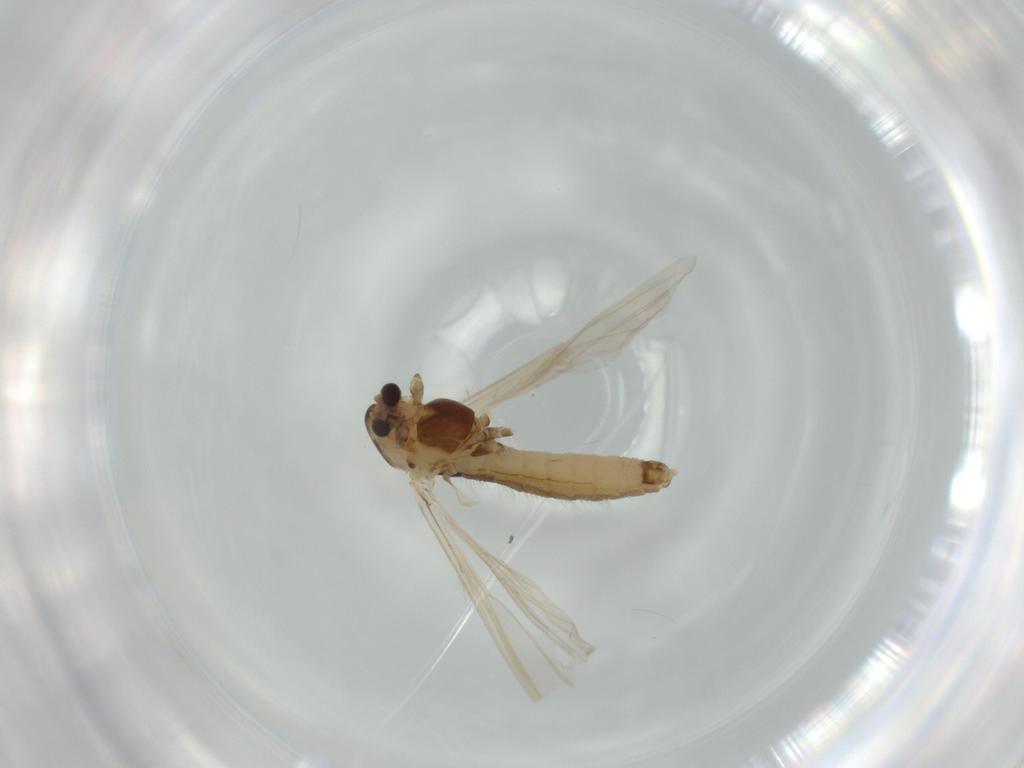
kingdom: Animalia
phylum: Arthropoda
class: Insecta
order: Diptera
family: Sciaridae
